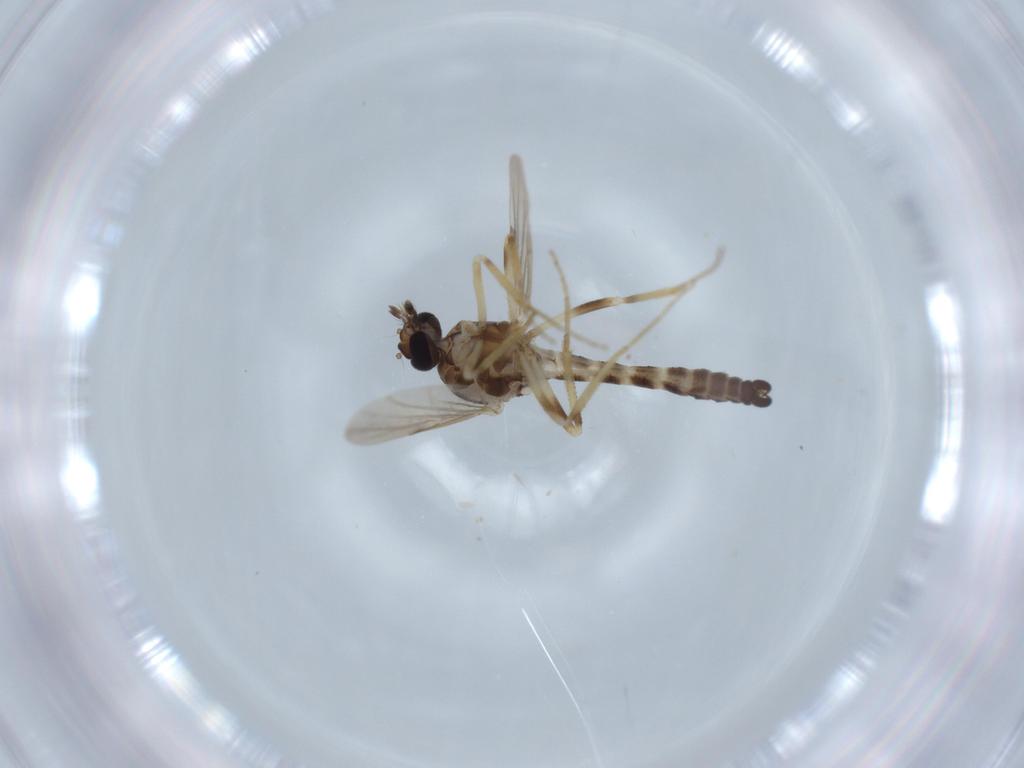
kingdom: Animalia
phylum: Arthropoda
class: Insecta
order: Diptera
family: Sciaridae
